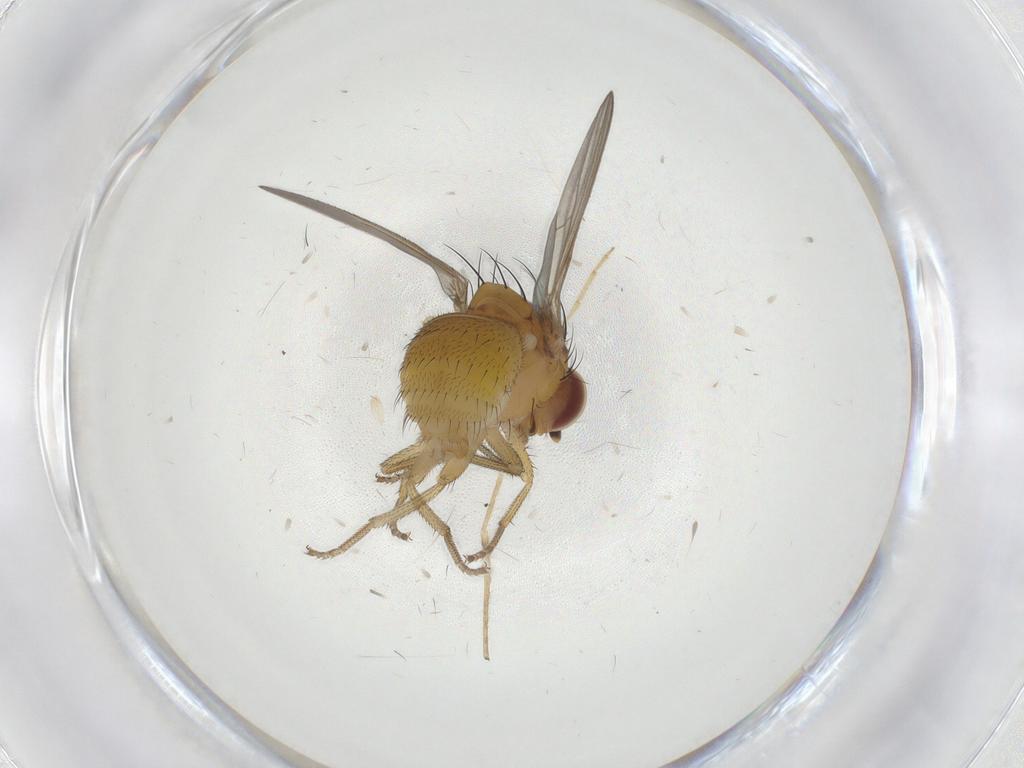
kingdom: Animalia
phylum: Arthropoda
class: Insecta
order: Diptera
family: Lauxaniidae
